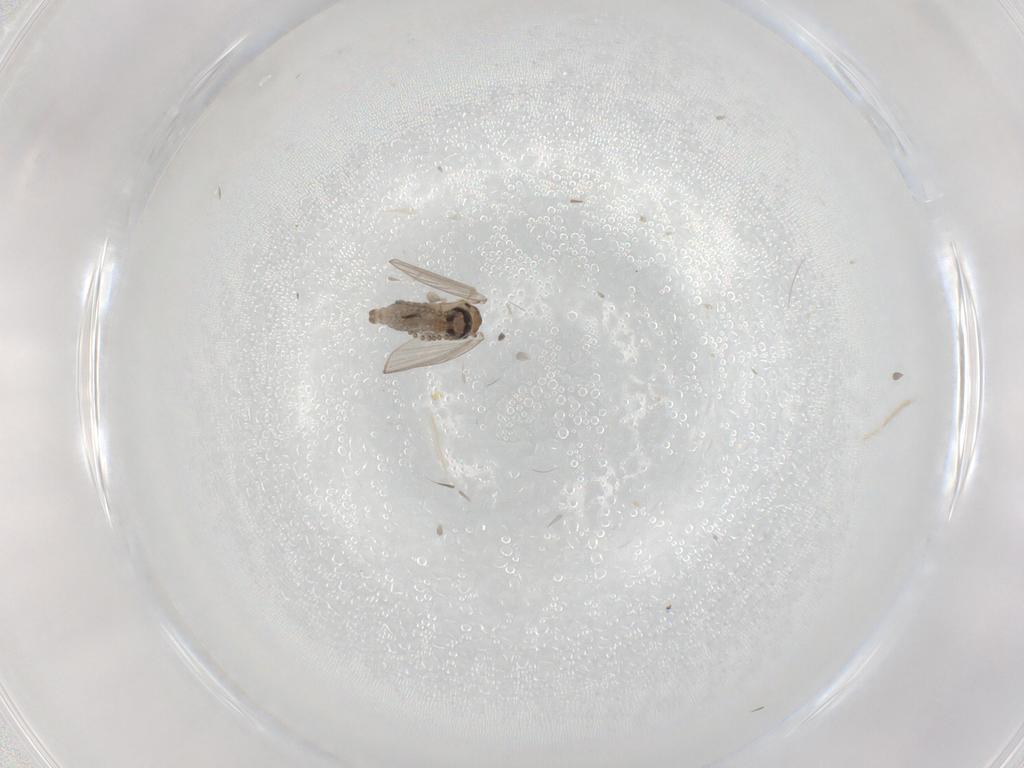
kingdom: Animalia
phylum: Arthropoda
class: Insecta
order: Diptera
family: Psychodidae
